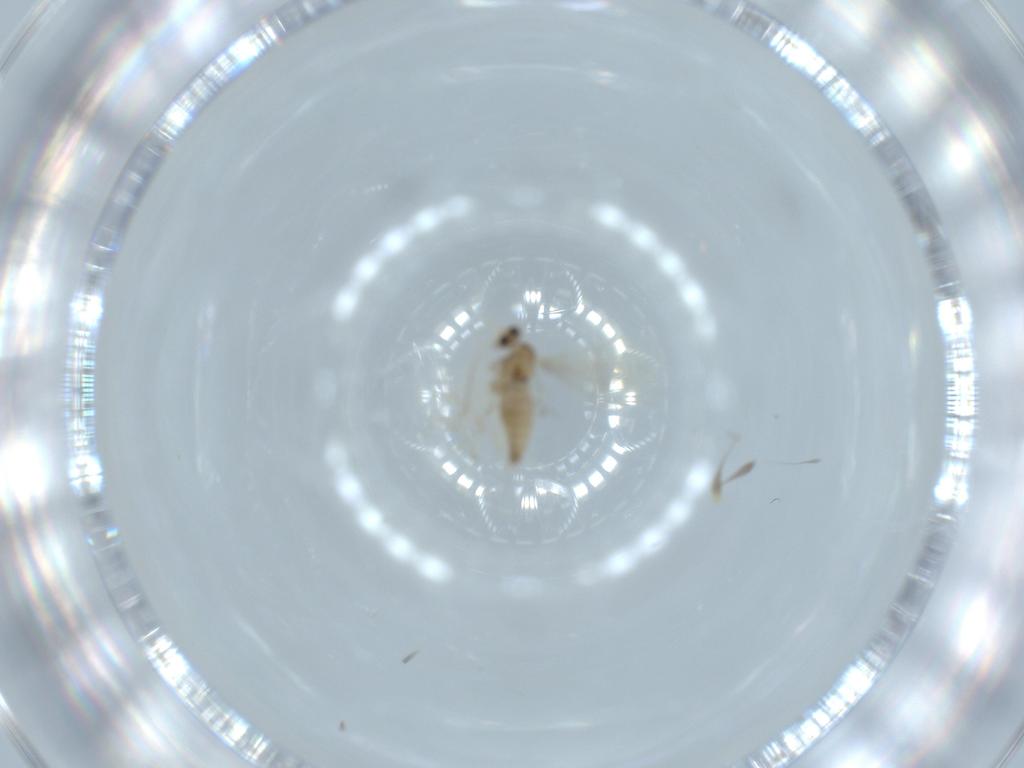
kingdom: Animalia
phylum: Arthropoda
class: Insecta
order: Diptera
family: Cecidomyiidae
